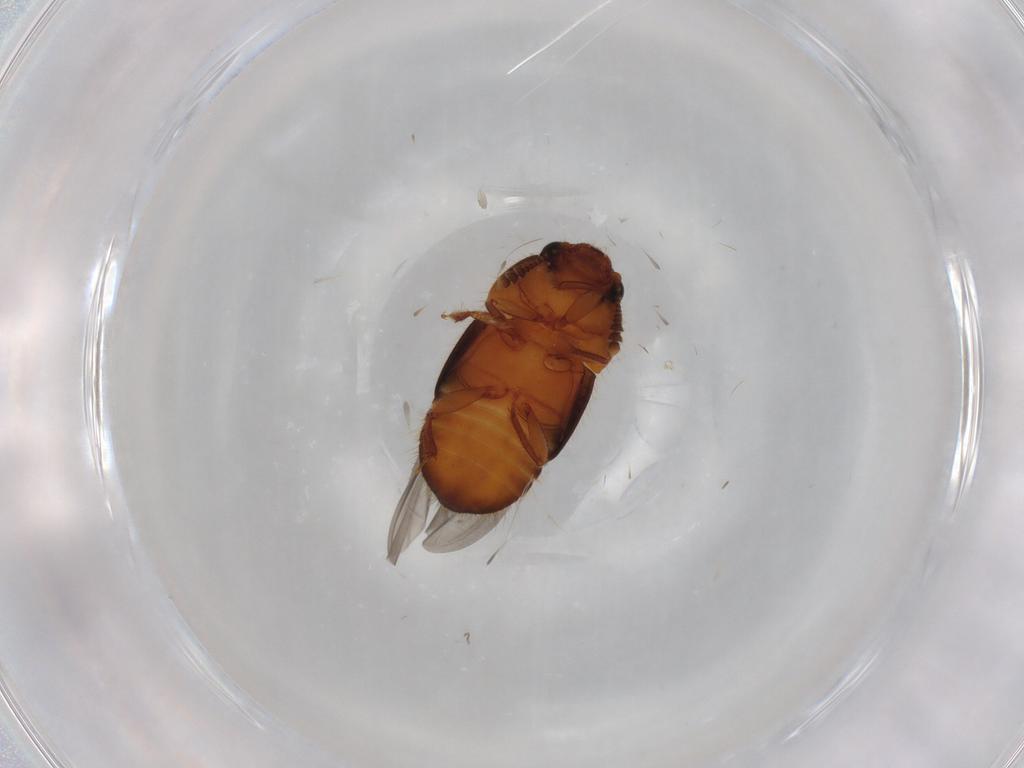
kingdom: Animalia
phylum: Arthropoda
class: Insecta
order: Coleoptera
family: Nitidulidae
